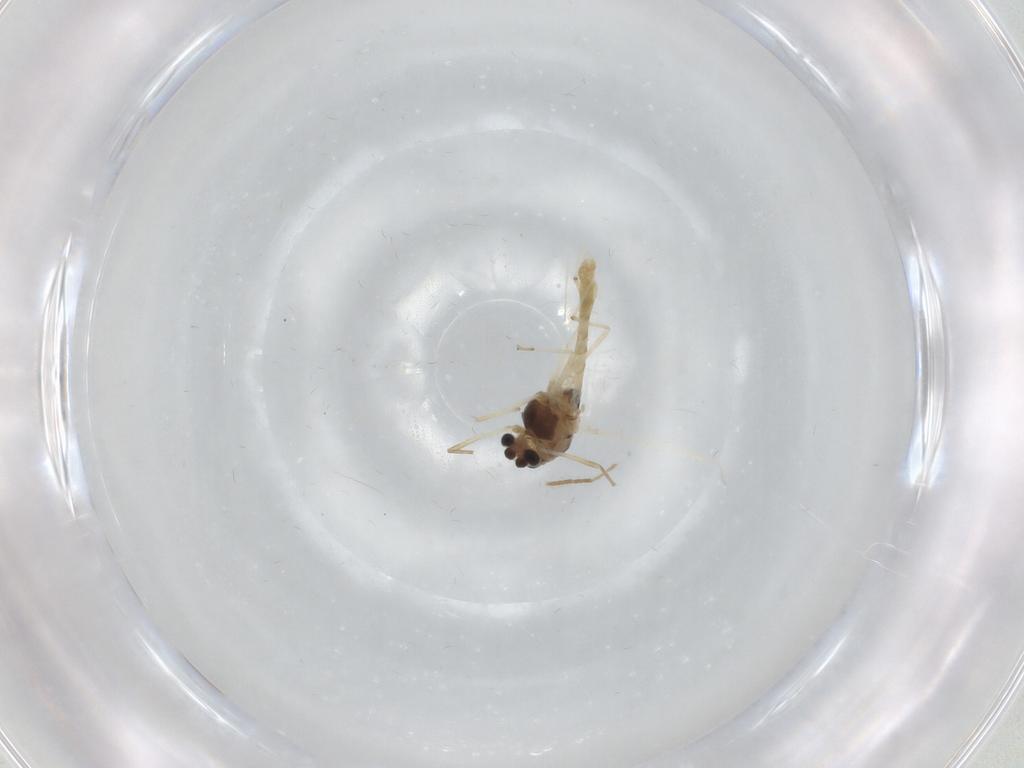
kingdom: Animalia
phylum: Arthropoda
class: Insecta
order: Diptera
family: Chironomidae
